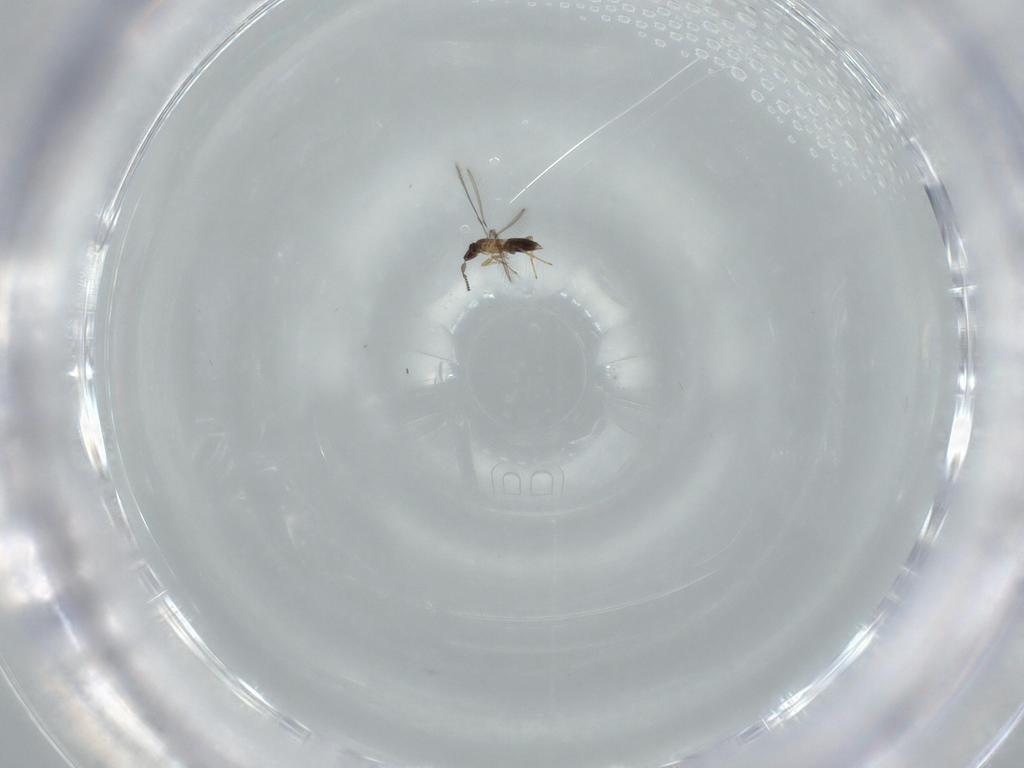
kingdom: Animalia
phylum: Arthropoda
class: Insecta
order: Hymenoptera
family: Mymaridae
